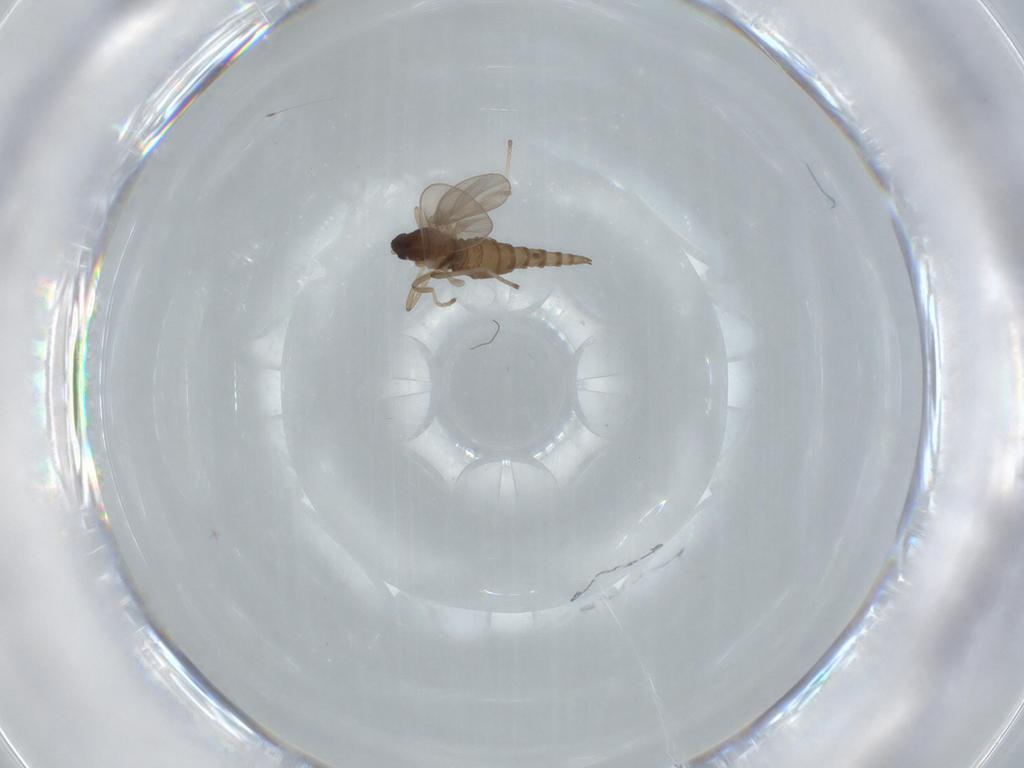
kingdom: Animalia
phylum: Arthropoda
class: Insecta
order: Diptera
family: Cecidomyiidae
